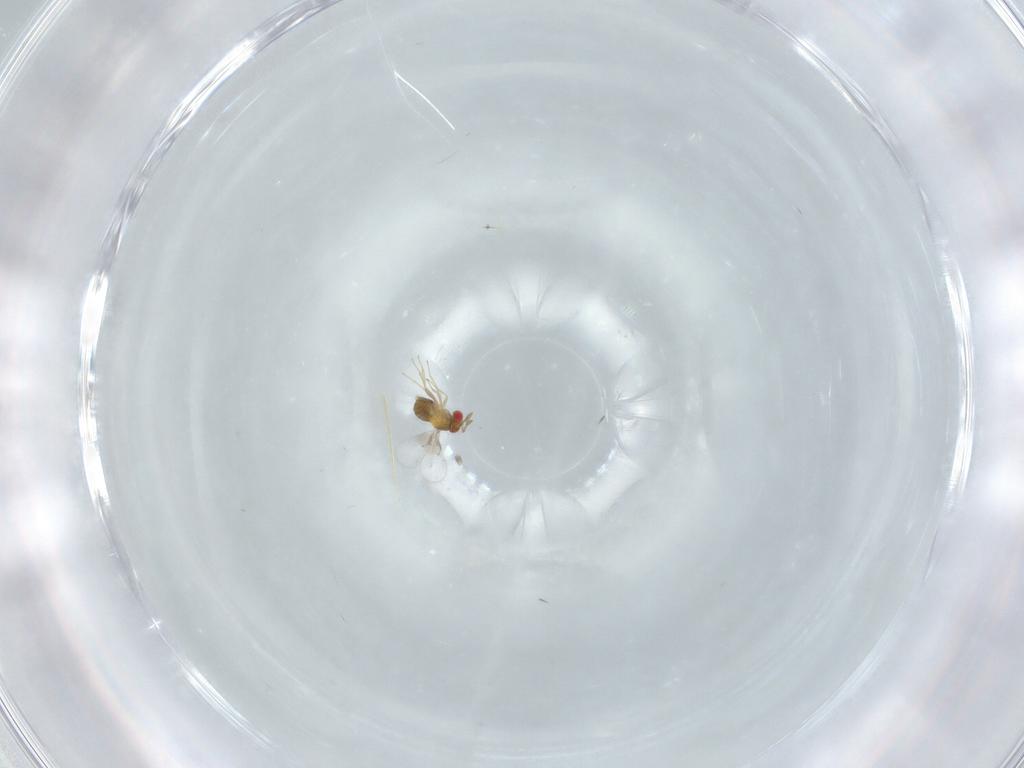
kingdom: Animalia
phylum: Arthropoda
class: Insecta
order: Hymenoptera
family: Trichogrammatidae
